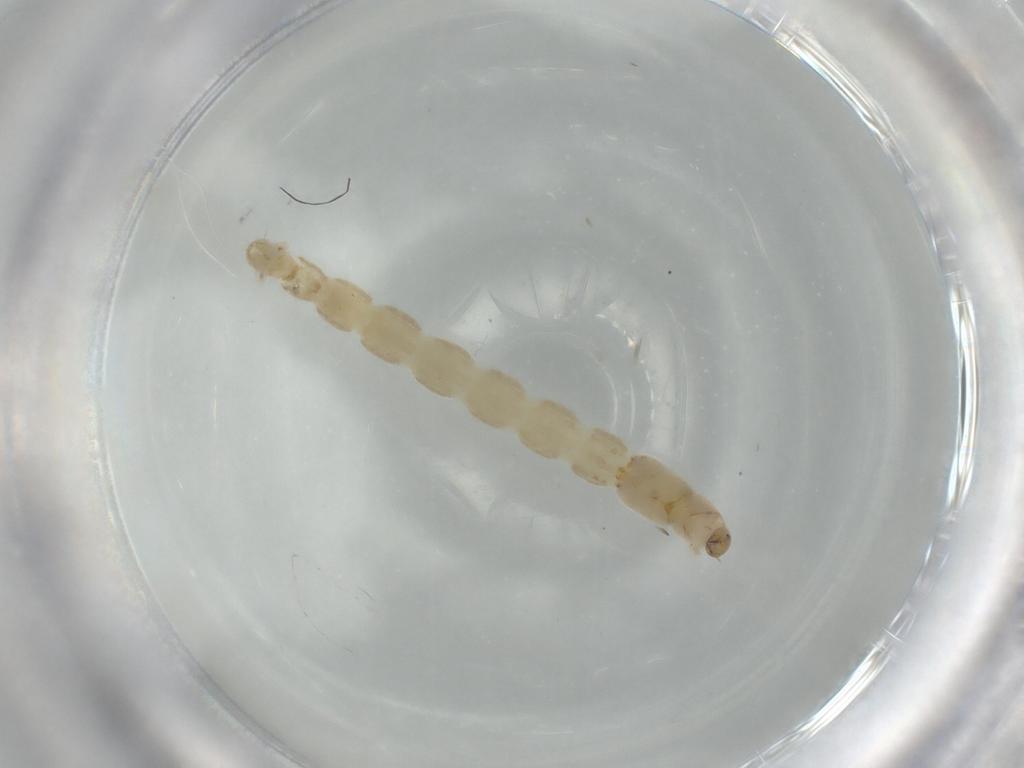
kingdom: Animalia
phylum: Arthropoda
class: Insecta
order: Diptera
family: Chironomidae
